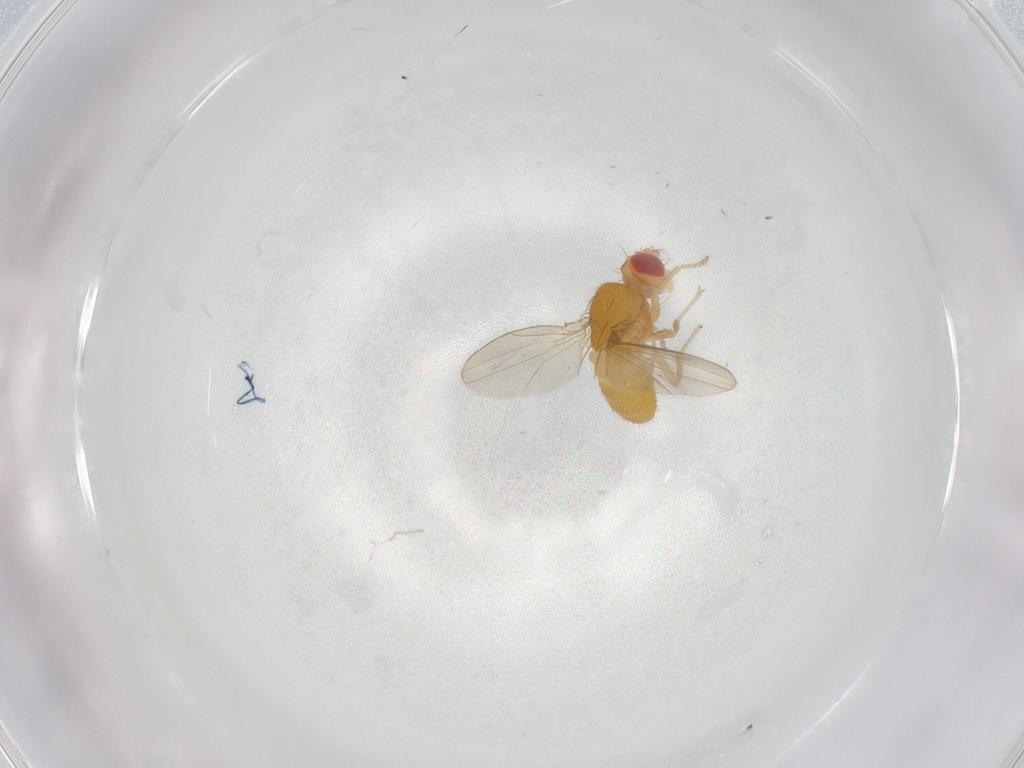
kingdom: Animalia
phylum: Arthropoda
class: Insecta
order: Diptera
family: Drosophilidae
